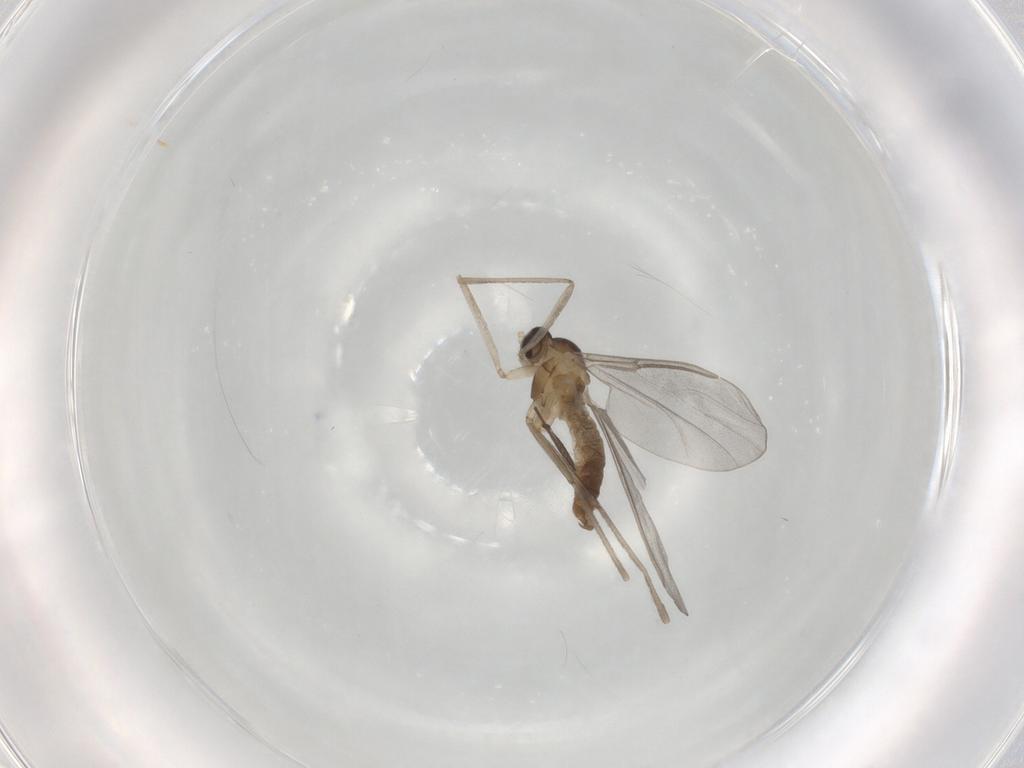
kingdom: Animalia
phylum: Arthropoda
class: Insecta
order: Diptera
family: Cecidomyiidae
